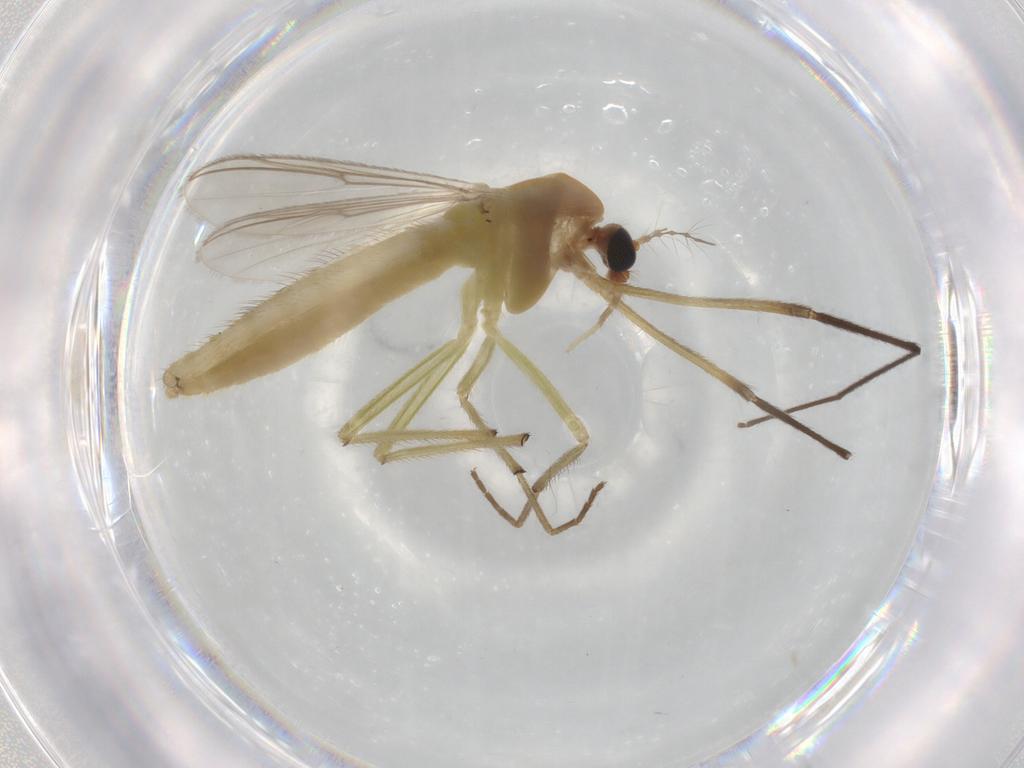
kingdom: Animalia
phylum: Arthropoda
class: Insecta
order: Diptera
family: Chironomidae
